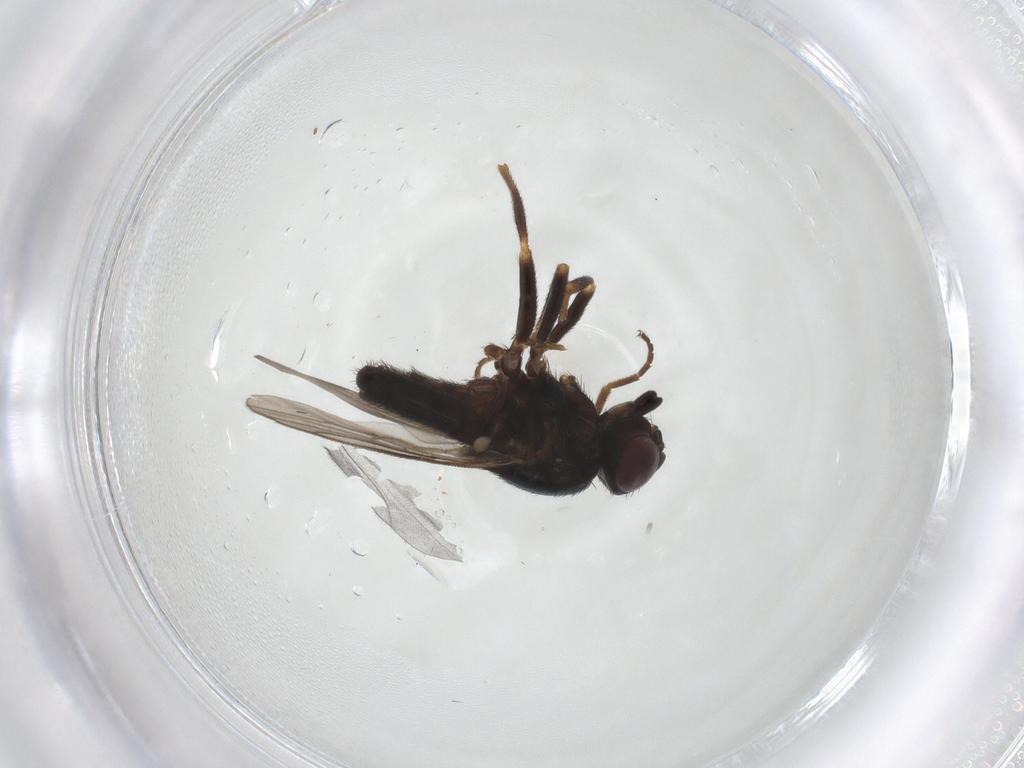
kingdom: Animalia
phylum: Arthropoda
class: Insecta
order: Diptera
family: Chloropidae
